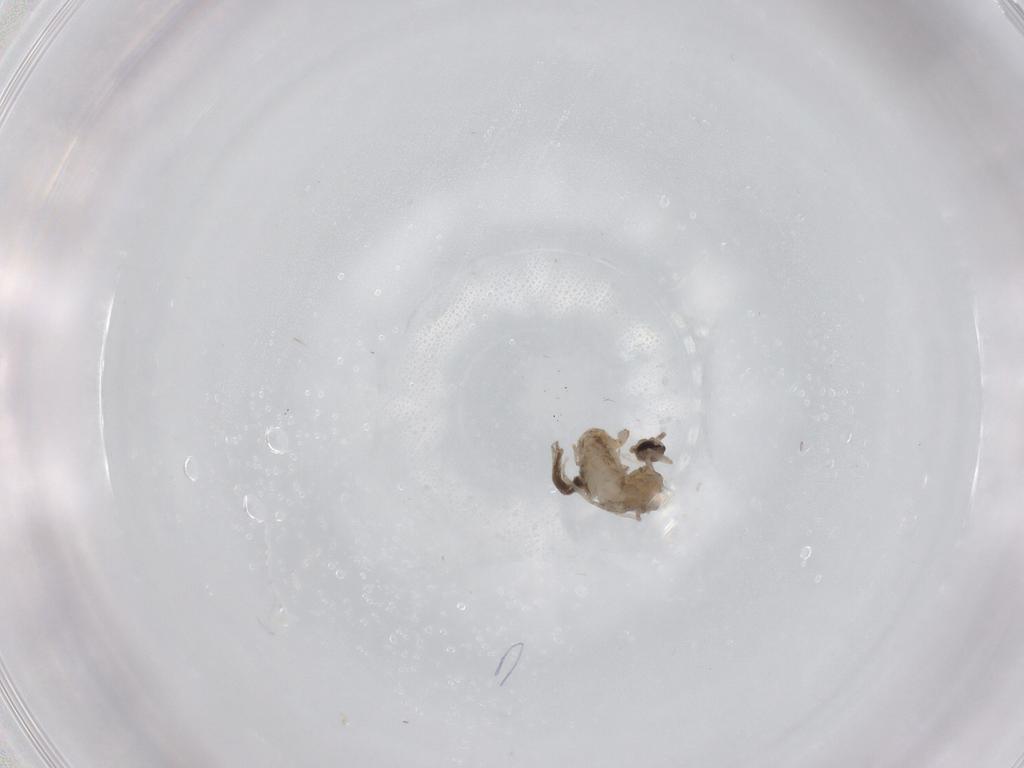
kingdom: Animalia
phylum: Arthropoda
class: Insecta
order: Diptera
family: Cecidomyiidae
